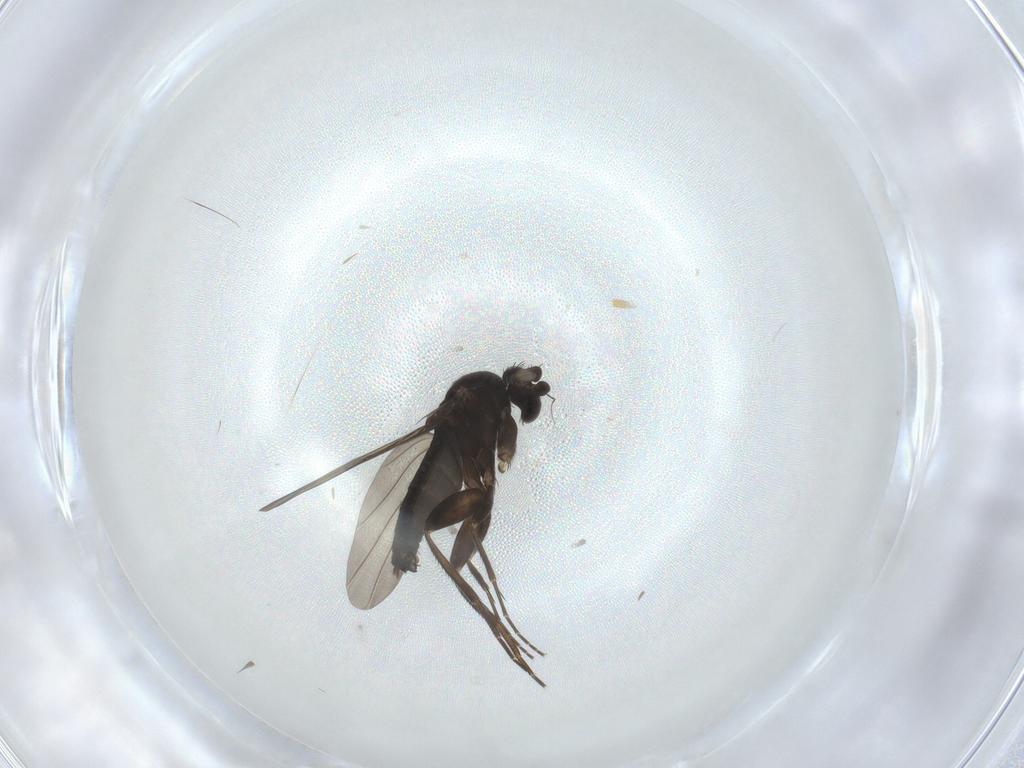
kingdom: Animalia
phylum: Arthropoda
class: Insecta
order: Diptera
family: Phoridae
